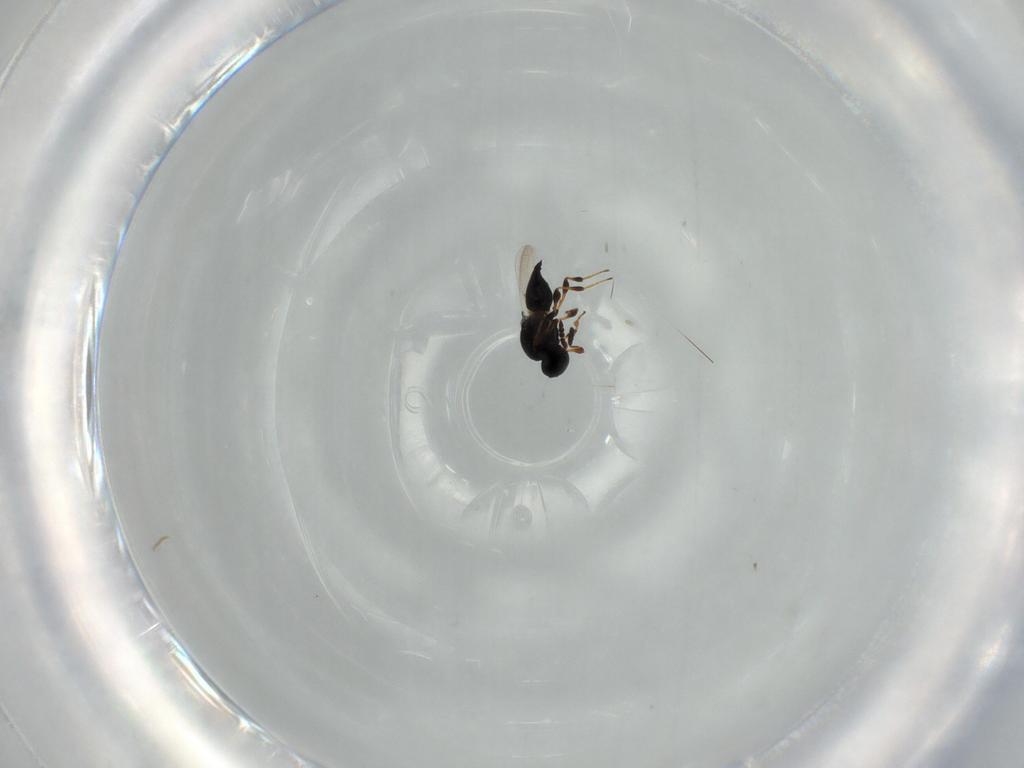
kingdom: Animalia
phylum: Arthropoda
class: Insecta
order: Hymenoptera
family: Platygastridae
